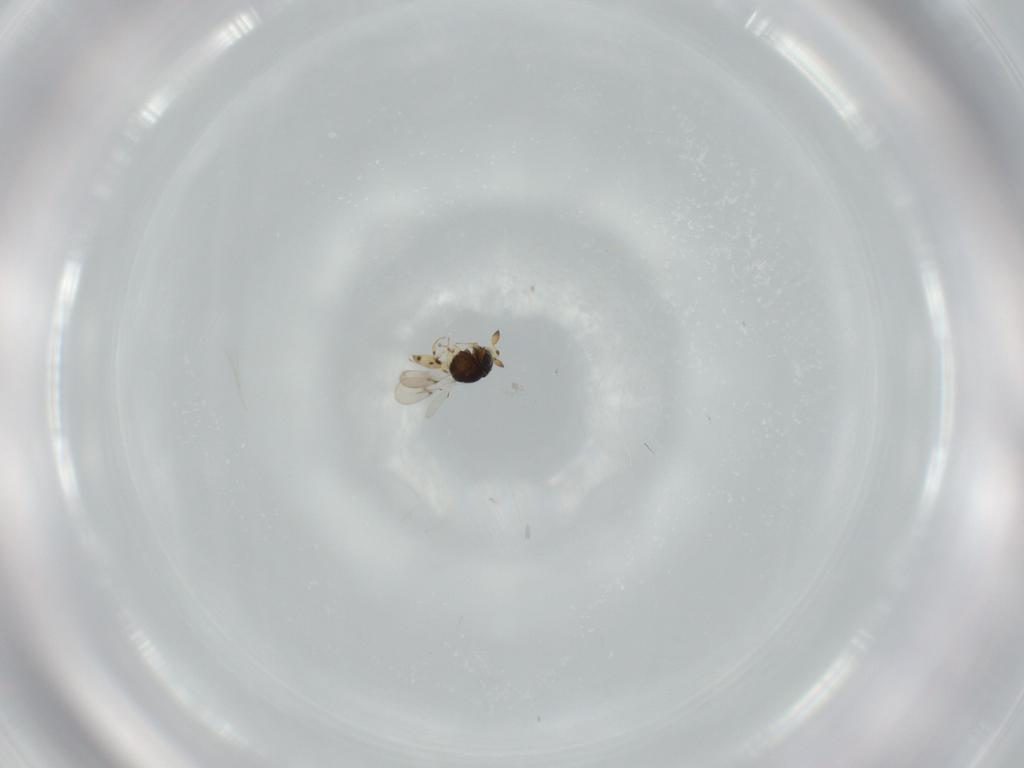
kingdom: Animalia
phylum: Arthropoda
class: Insecta
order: Hymenoptera
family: Scelionidae
